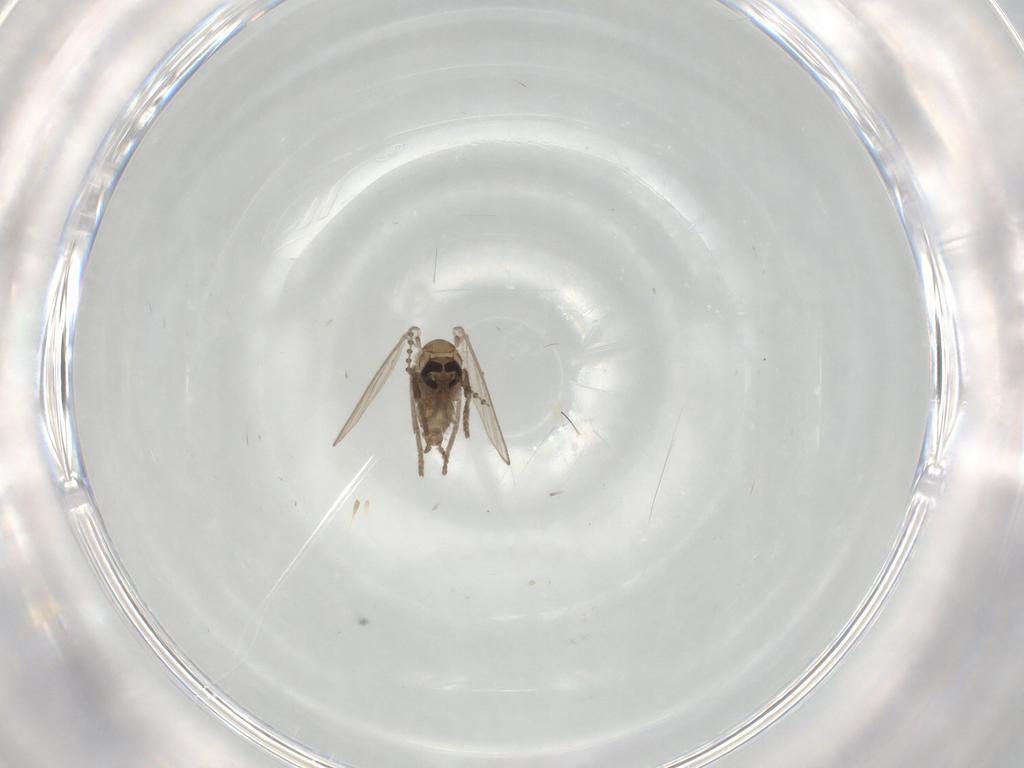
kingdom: Animalia
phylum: Arthropoda
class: Insecta
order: Diptera
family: Cecidomyiidae
